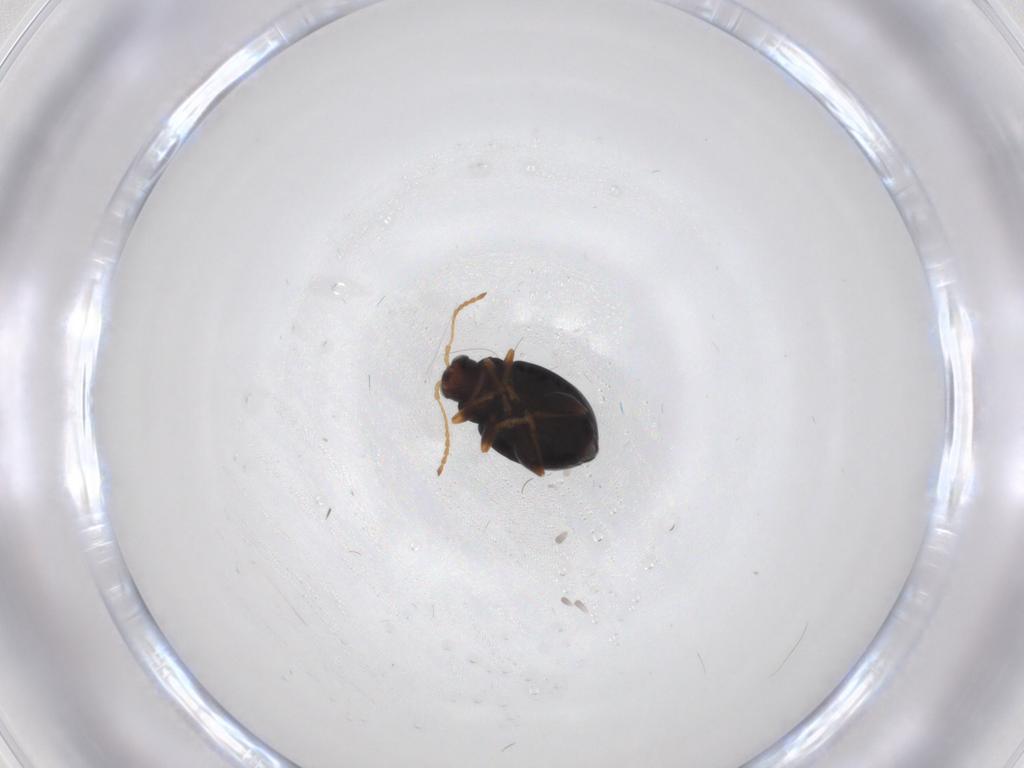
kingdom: Animalia
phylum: Arthropoda
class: Insecta
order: Coleoptera
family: Chrysomelidae
